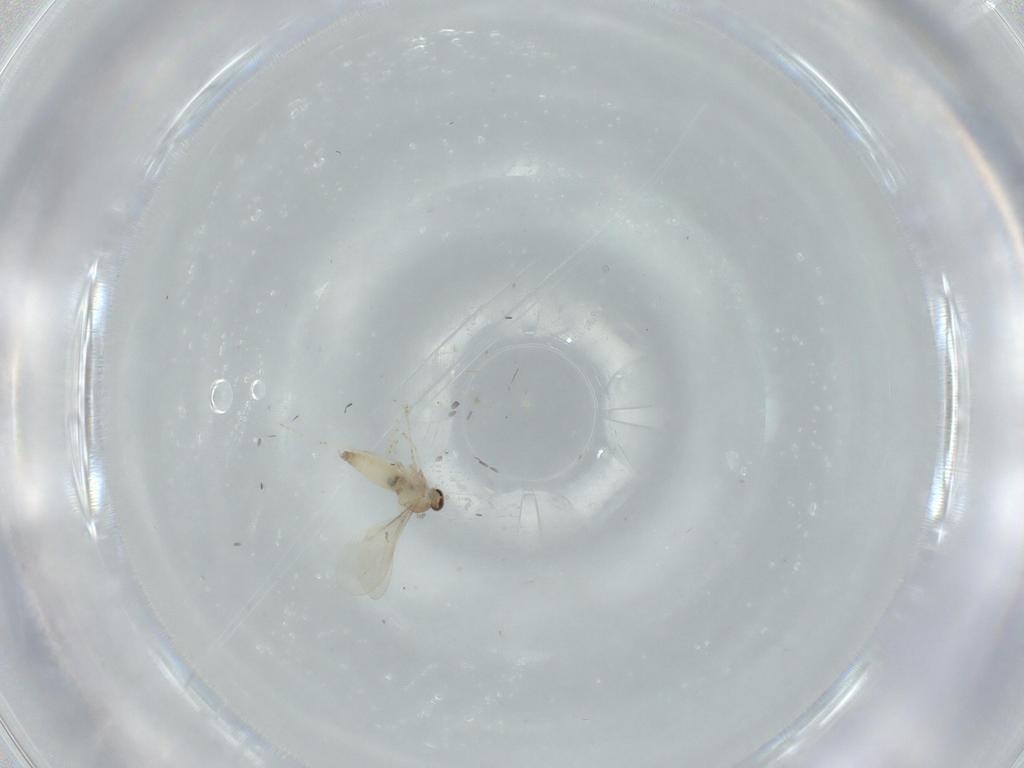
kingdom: Animalia
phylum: Arthropoda
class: Insecta
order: Diptera
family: Cecidomyiidae
